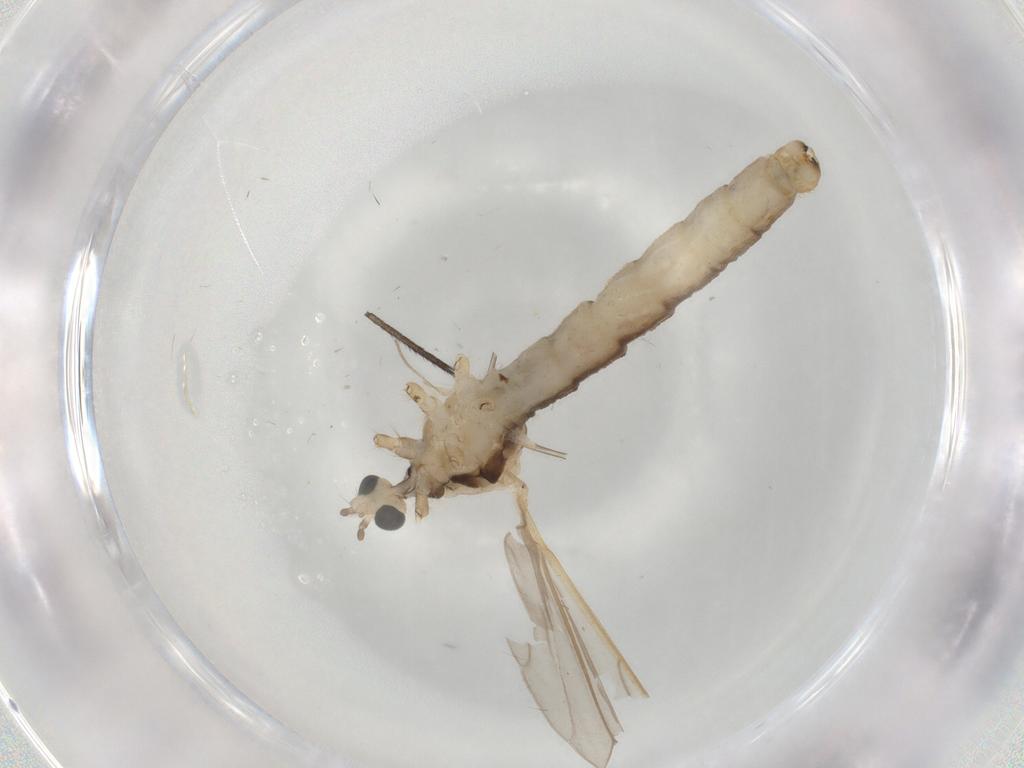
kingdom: Animalia
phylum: Arthropoda
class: Insecta
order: Diptera
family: Phoridae
